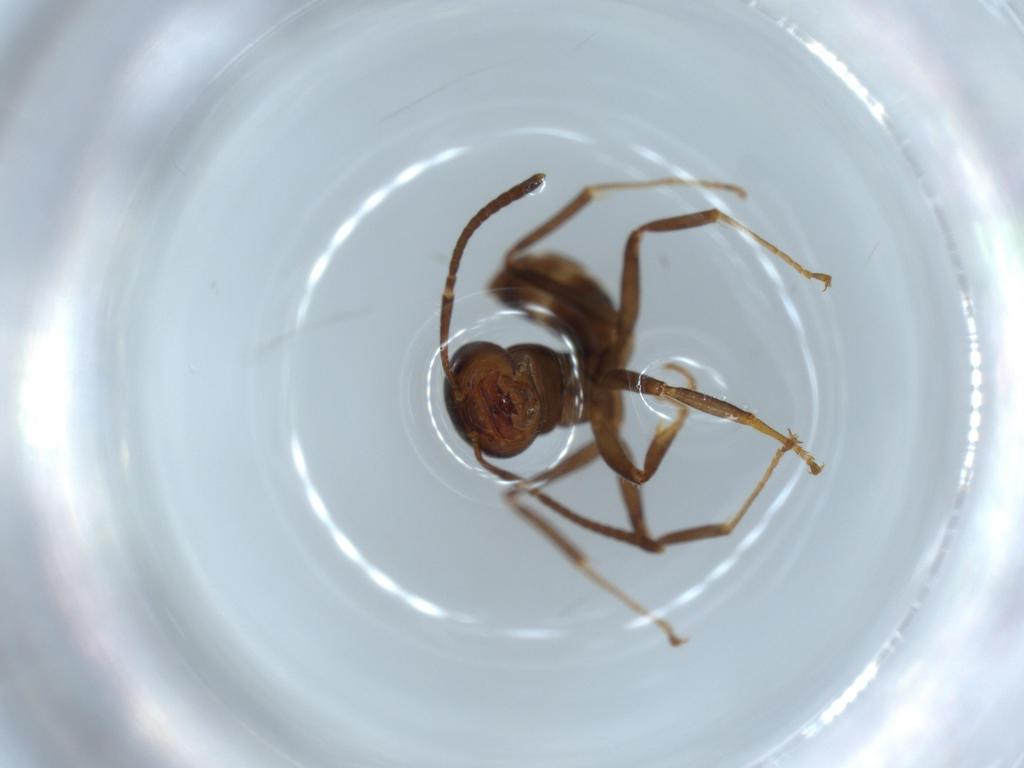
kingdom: Animalia
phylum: Arthropoda
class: Insecta
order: Hymenoptera
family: Formicidae
